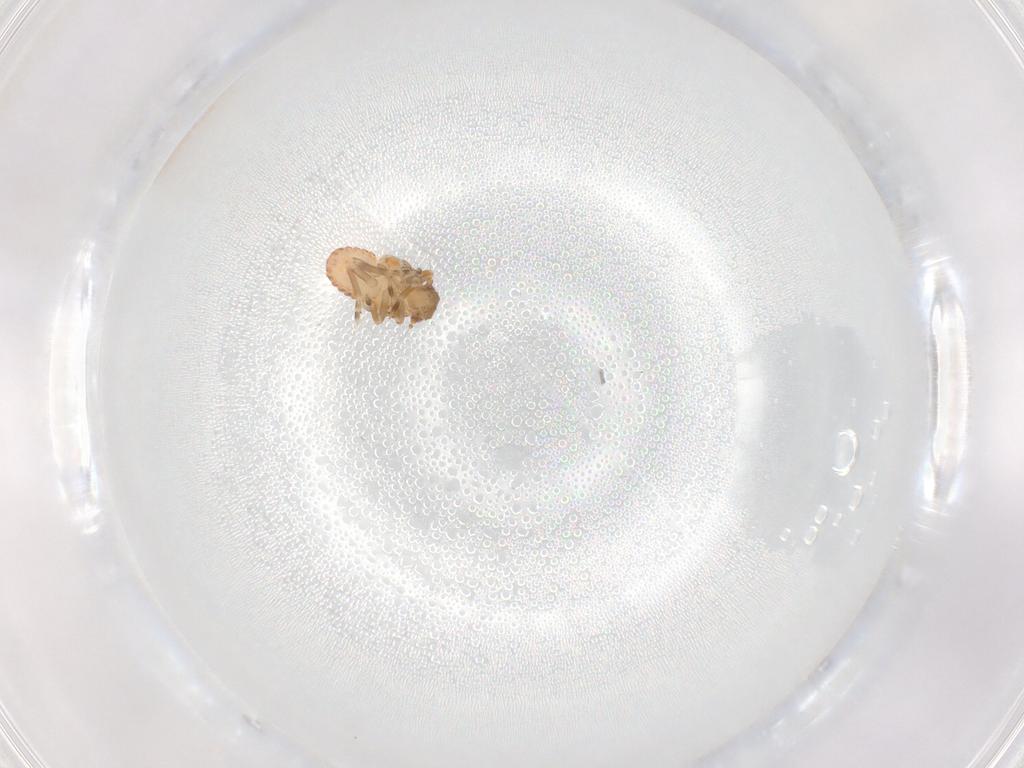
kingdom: Animalia
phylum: Arthropoda
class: Insecta
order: Hemiptera
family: Flatidae
